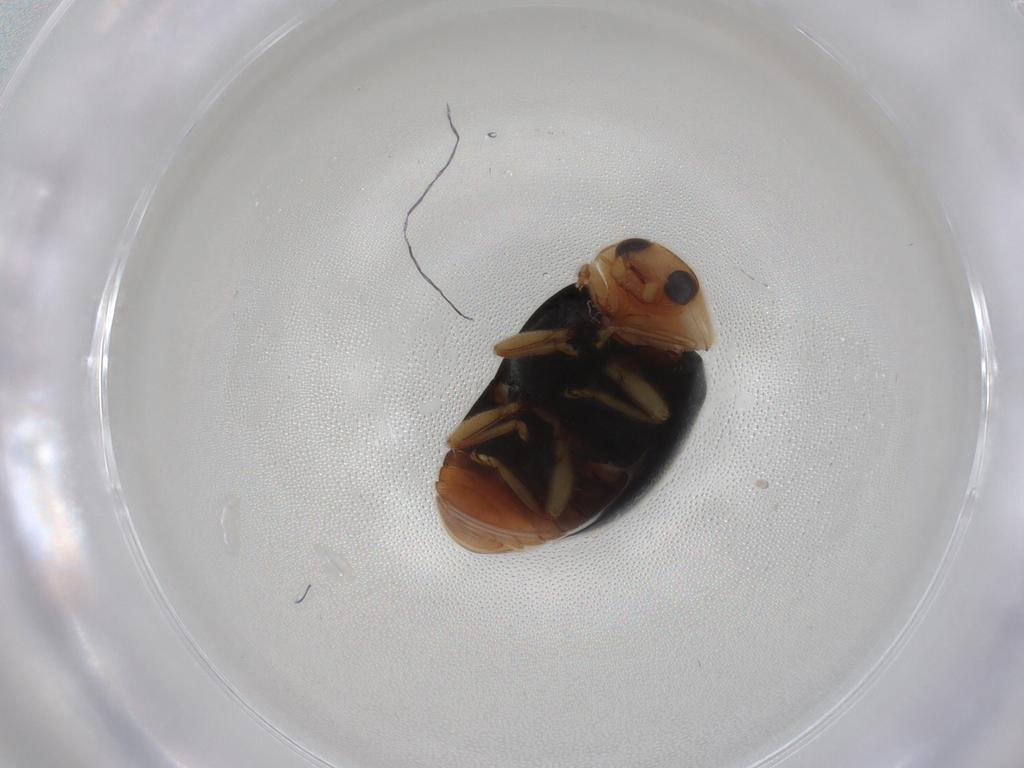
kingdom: Animalia
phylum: Arthropoda
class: Insecta
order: Coleoptera
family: Coccinellidae
